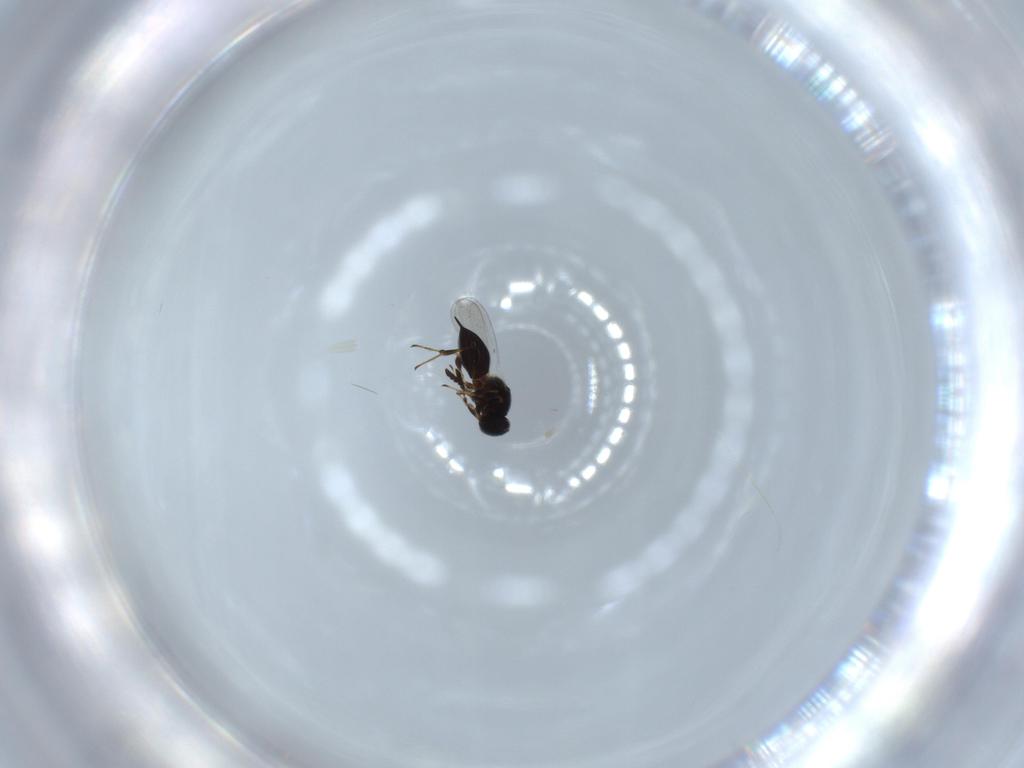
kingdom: Animalia
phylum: Arthropoda
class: Insecta
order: Hymenoptera
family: Platygastridae
